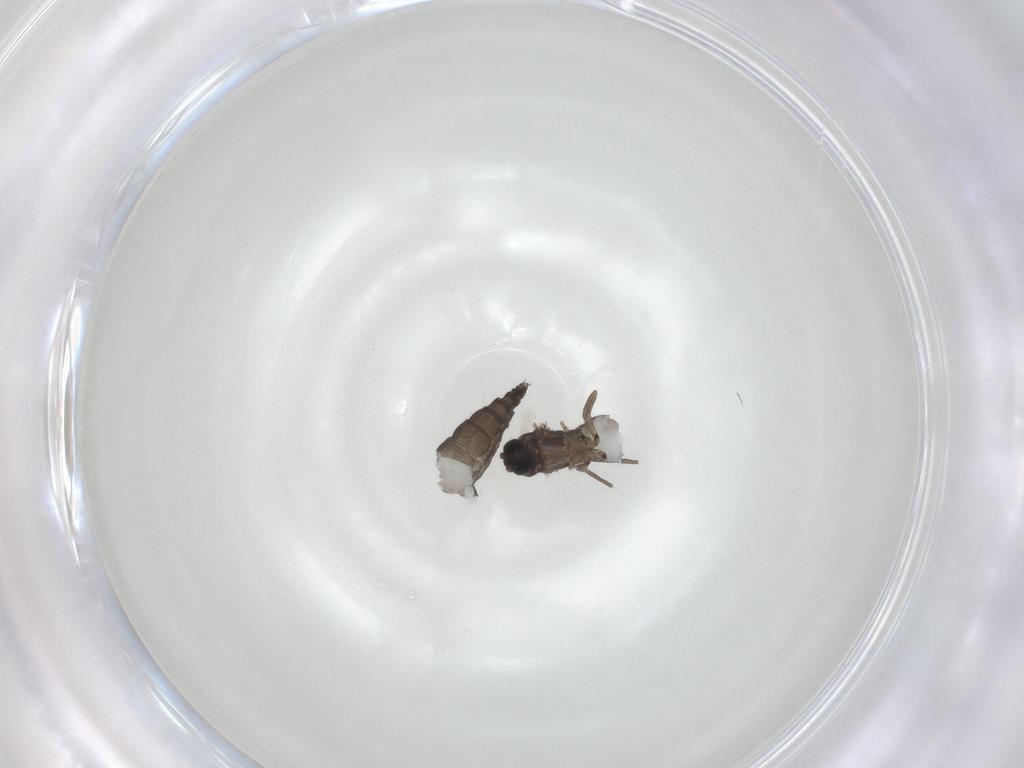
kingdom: Animalia
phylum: Arthropoda
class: Insecta
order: Diptera
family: Sciaridae
